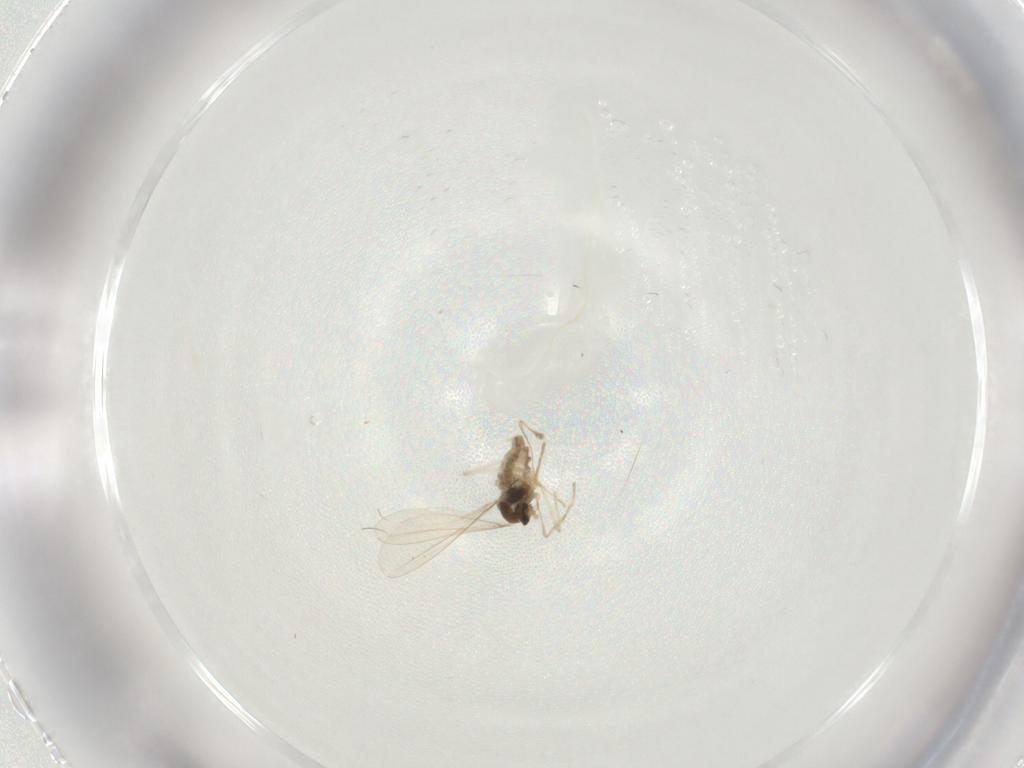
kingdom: Animalia
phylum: Arthropoda
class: Insecta
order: Diptera
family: Cecidomyiidae
